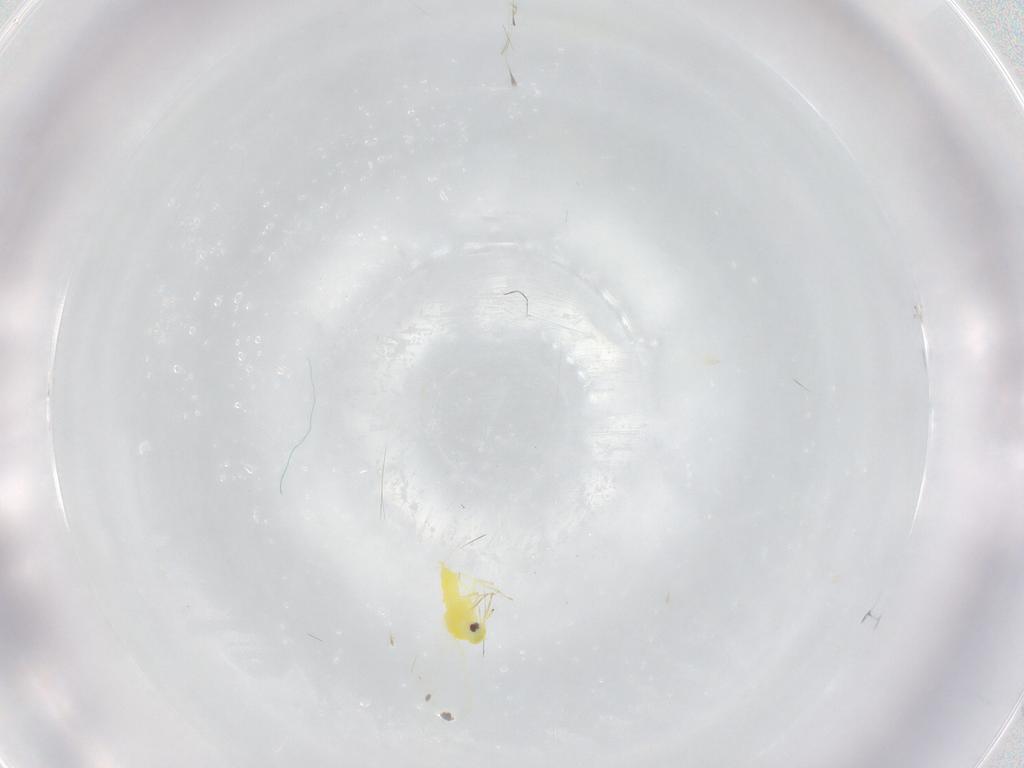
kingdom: Animalia
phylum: Arthropoda
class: Insecta
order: Hemiptera
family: Aleyrodidae
